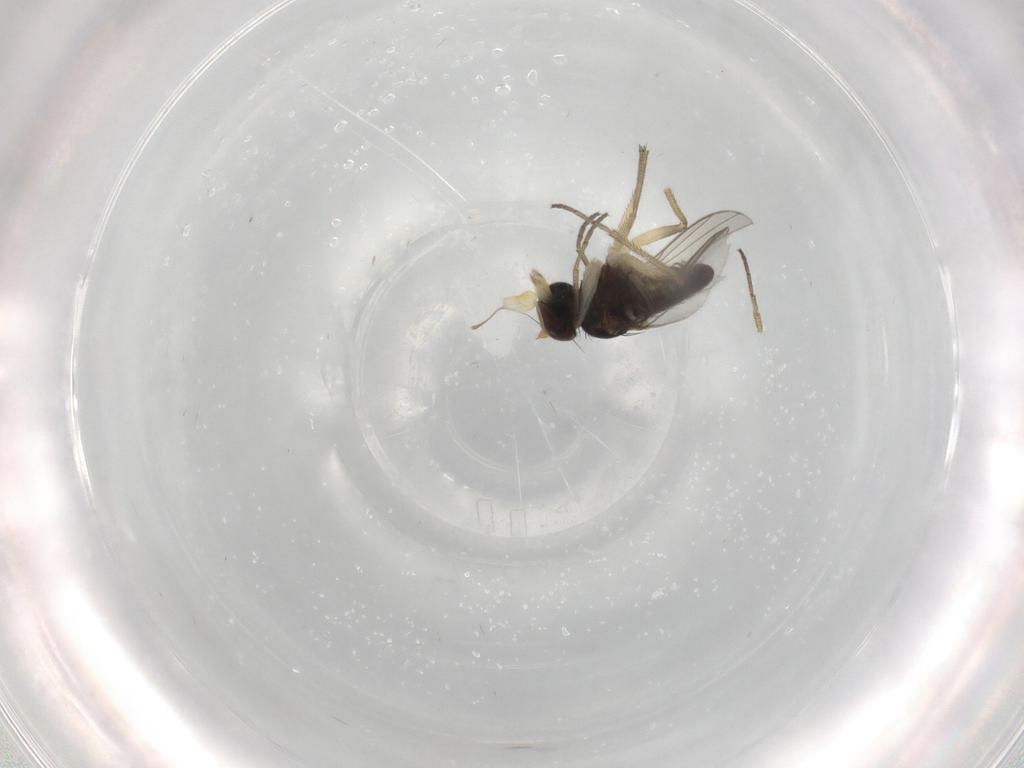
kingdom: Animalia
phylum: Arthropoda
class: Insecta
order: Diptera
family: Dolichopodidae
